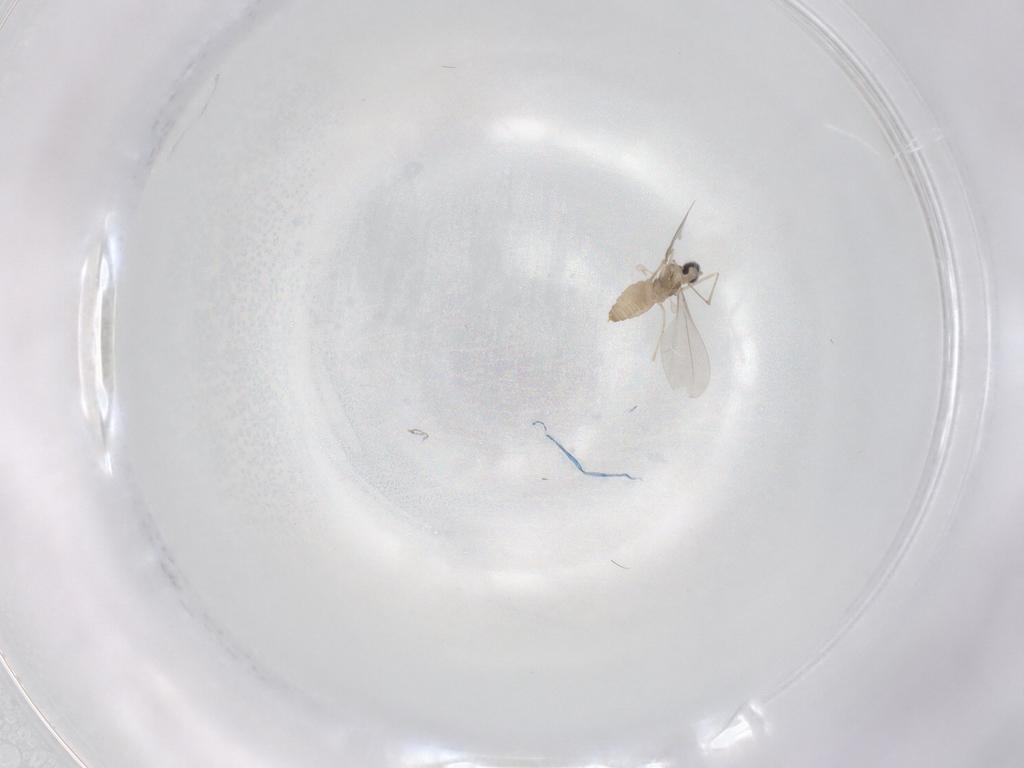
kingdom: Animalia
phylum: Arthropoda
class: Insecta
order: Diptera
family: Cecidomyiidae
